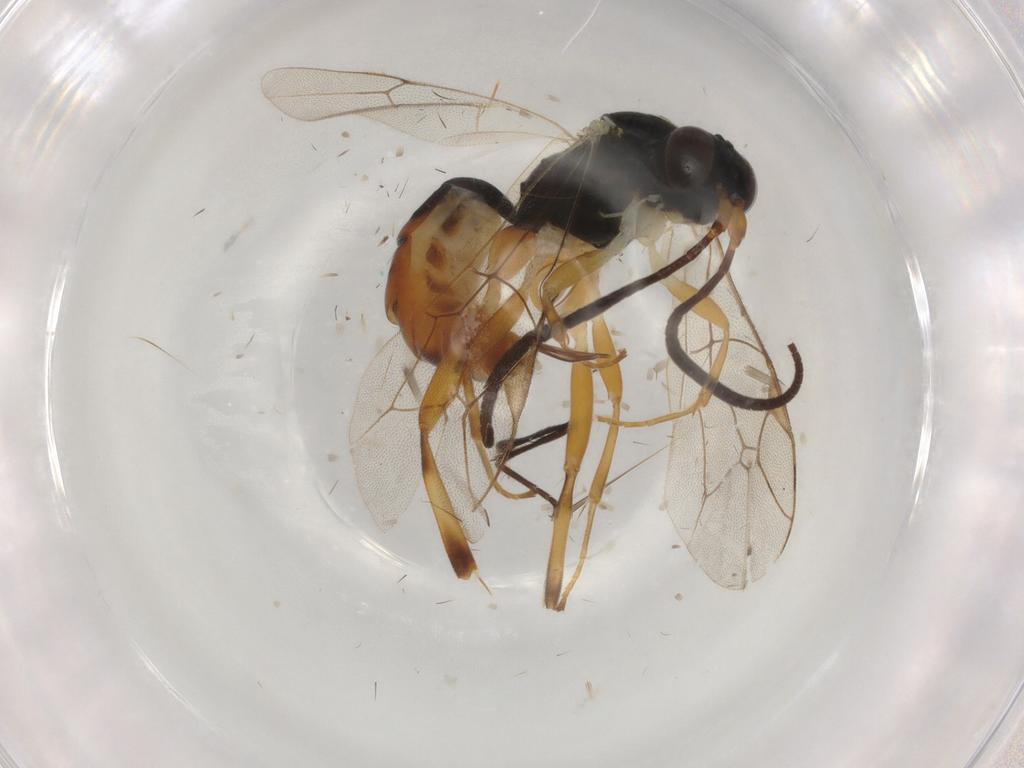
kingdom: Animalia
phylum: Arthropoda
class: Insecta
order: Hymenoptera
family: Ichneumonidae
